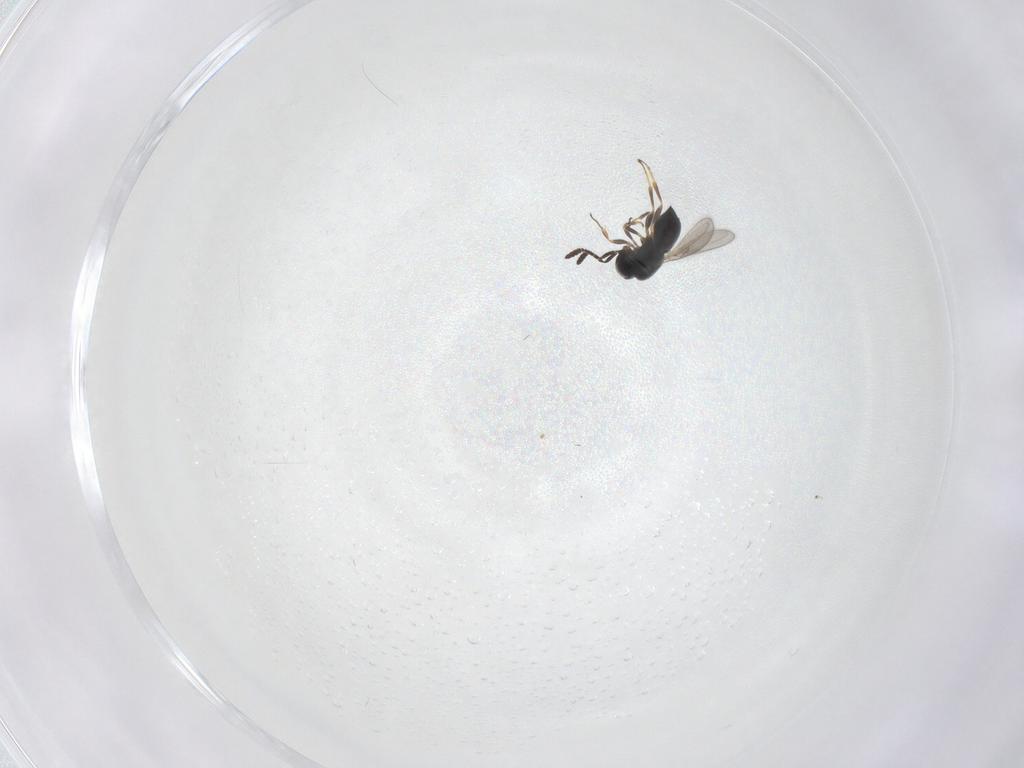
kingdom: Animalia
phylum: Arthropoda
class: Insecta
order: Hymenoptera
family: Scelionidae
